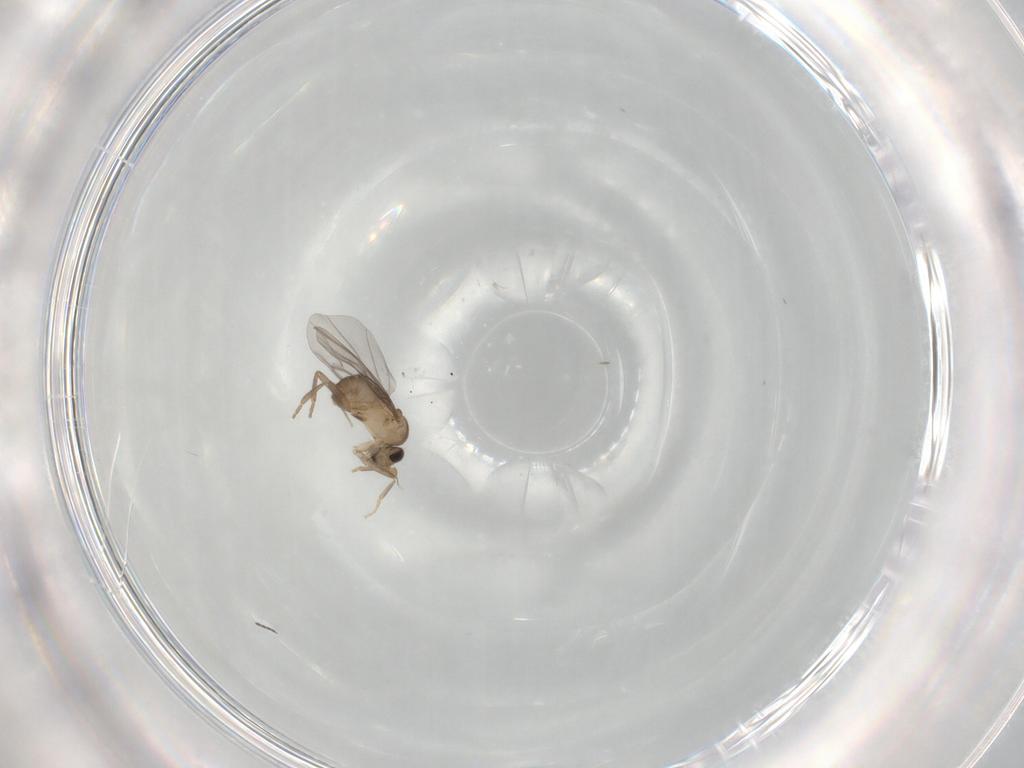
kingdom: Animalia
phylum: Arthropoda
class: Insecta
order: Diptera
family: Cecidomyiidae
